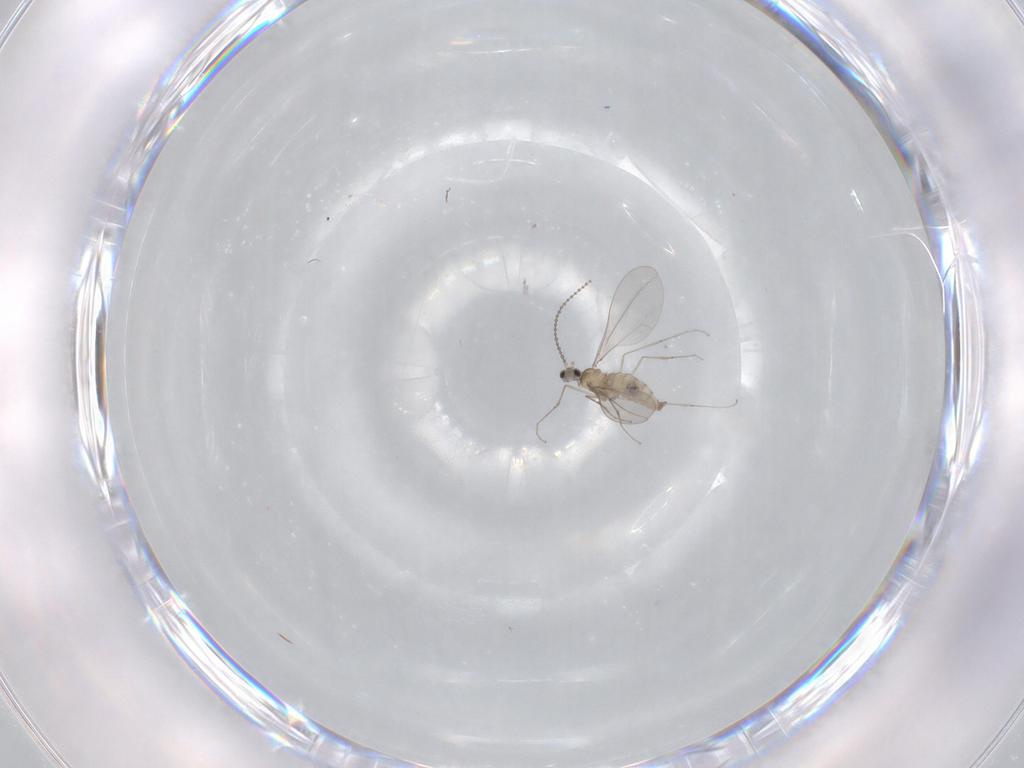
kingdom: Animalia
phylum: Arthropoda
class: Insecta
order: Diptera
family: Cecidomyiidae
